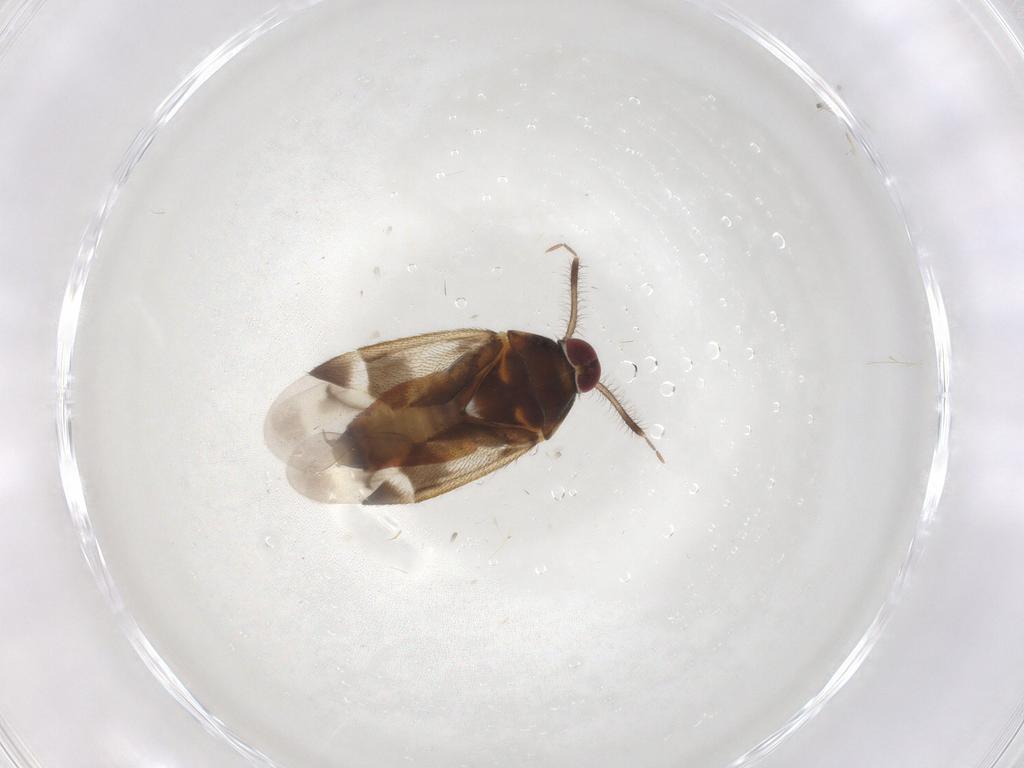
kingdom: Animalia
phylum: Arthropoda
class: Insecta
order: Hemiptera
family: Miridae
